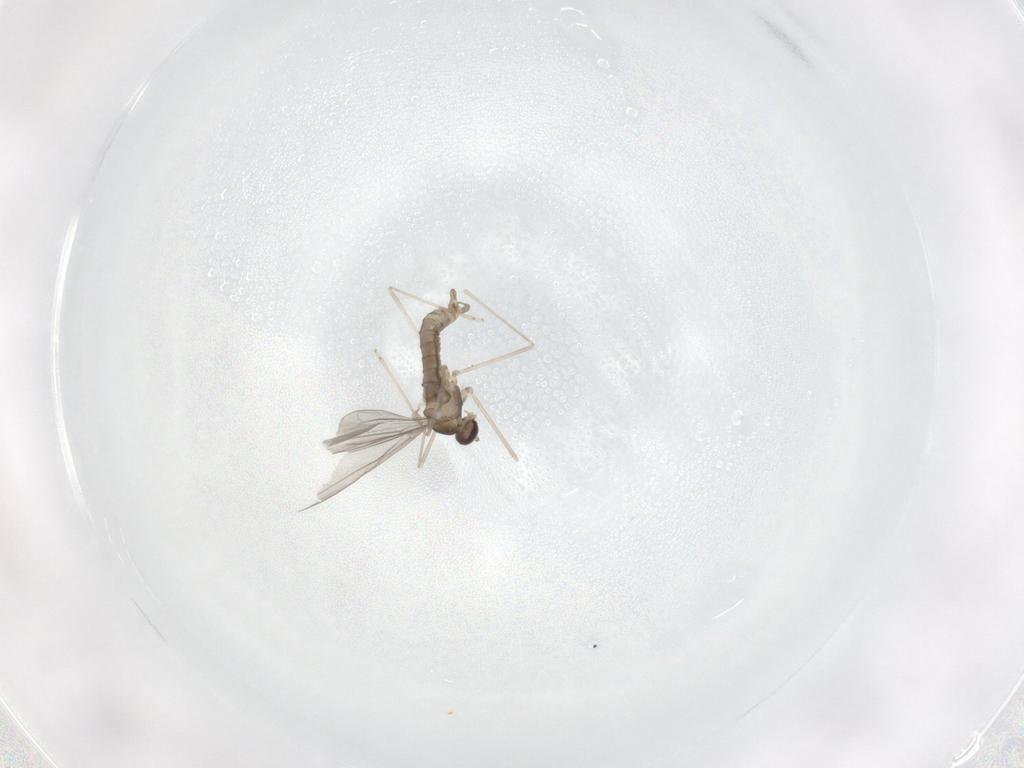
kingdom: Animalia
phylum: Arthropoda
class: Insecta
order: Diptera
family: Cecidomyiidae
